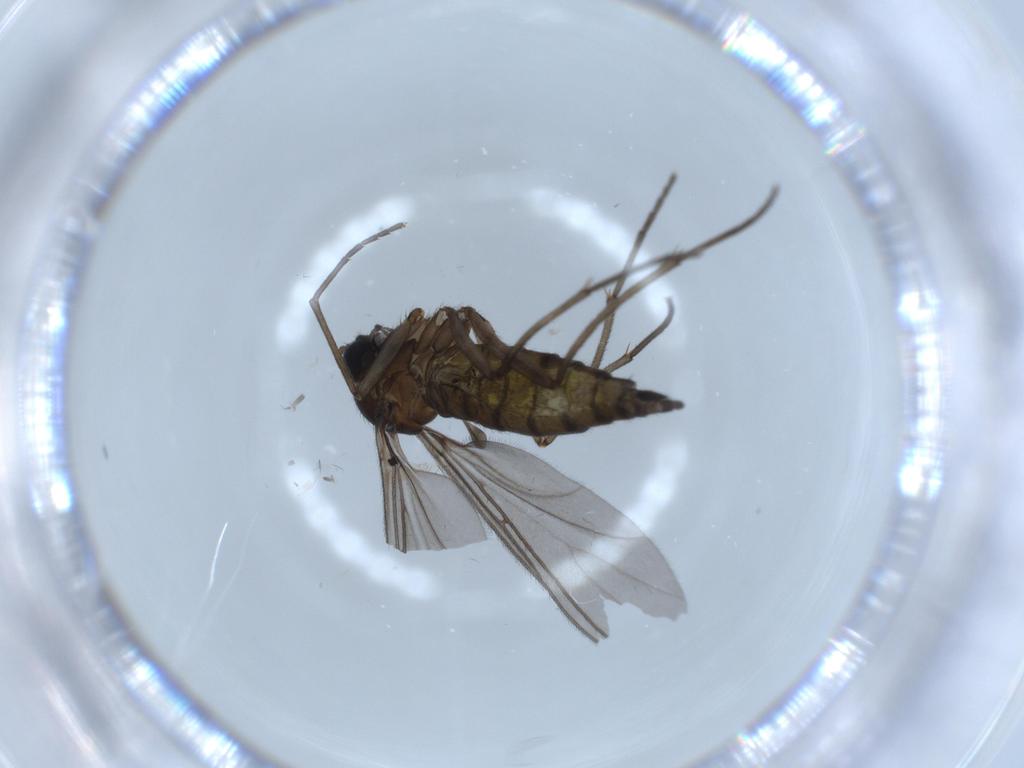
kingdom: Animalia
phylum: Arthropoda
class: Insecta
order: Diptera
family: Sciaridae
